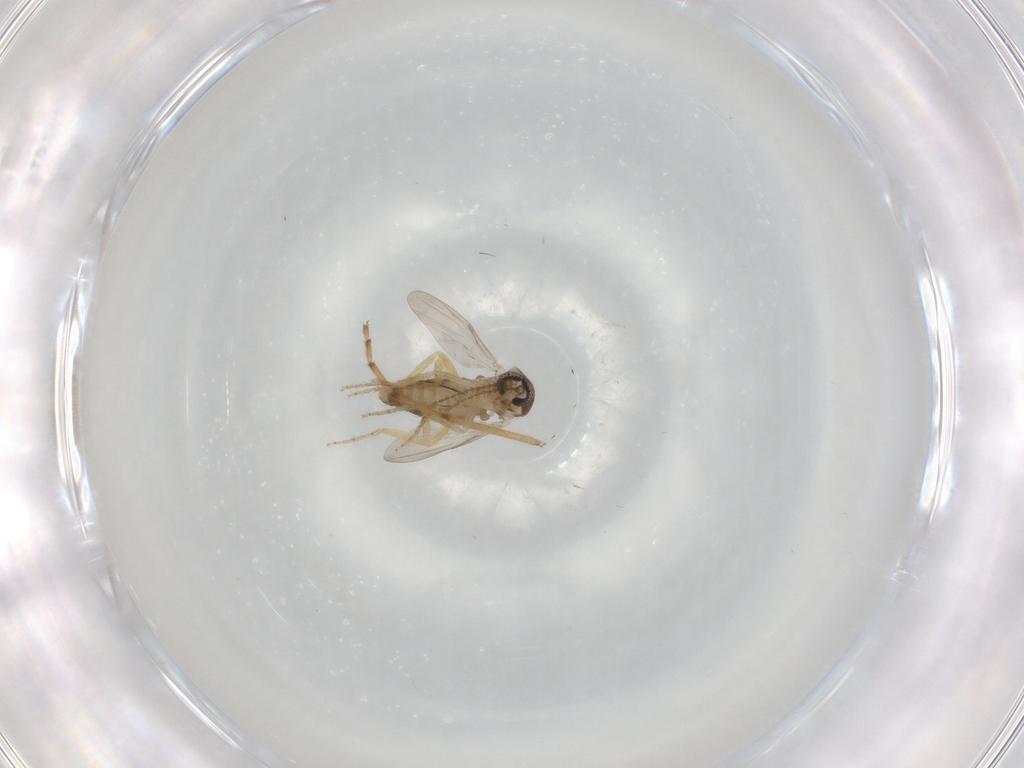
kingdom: Animalia
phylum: Arthropoda
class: Insecta
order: Diptera
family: Ceratopogonidae
